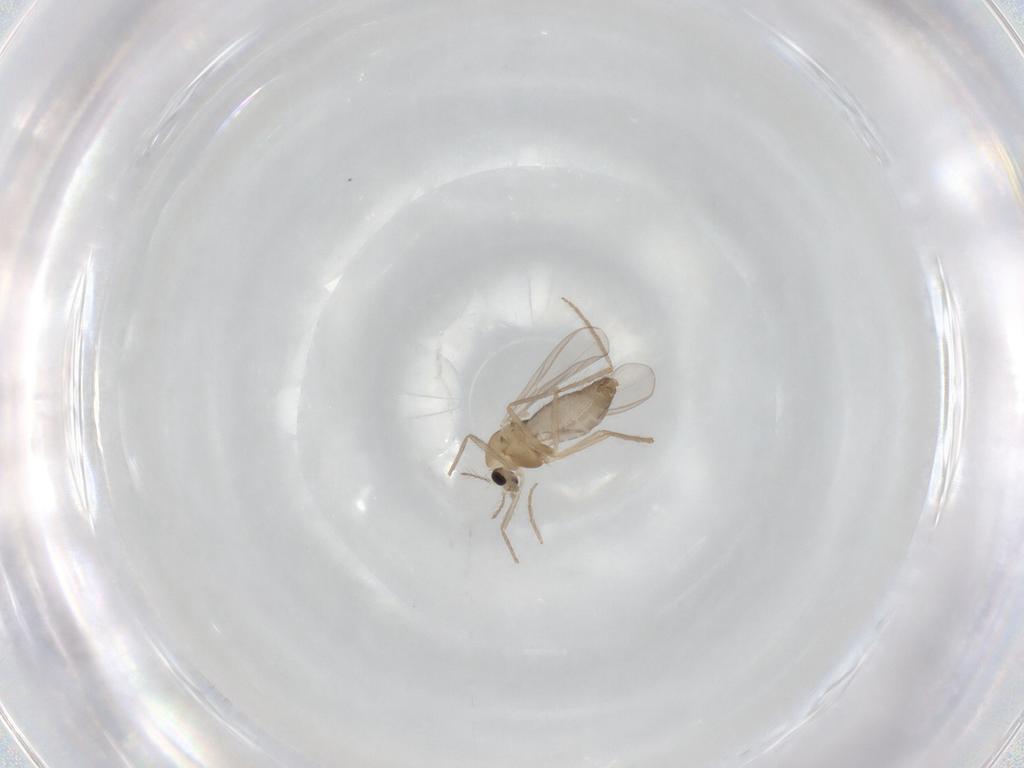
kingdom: Animalia
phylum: Arthropoda
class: Insecta
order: Diptera
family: Chironomidae
